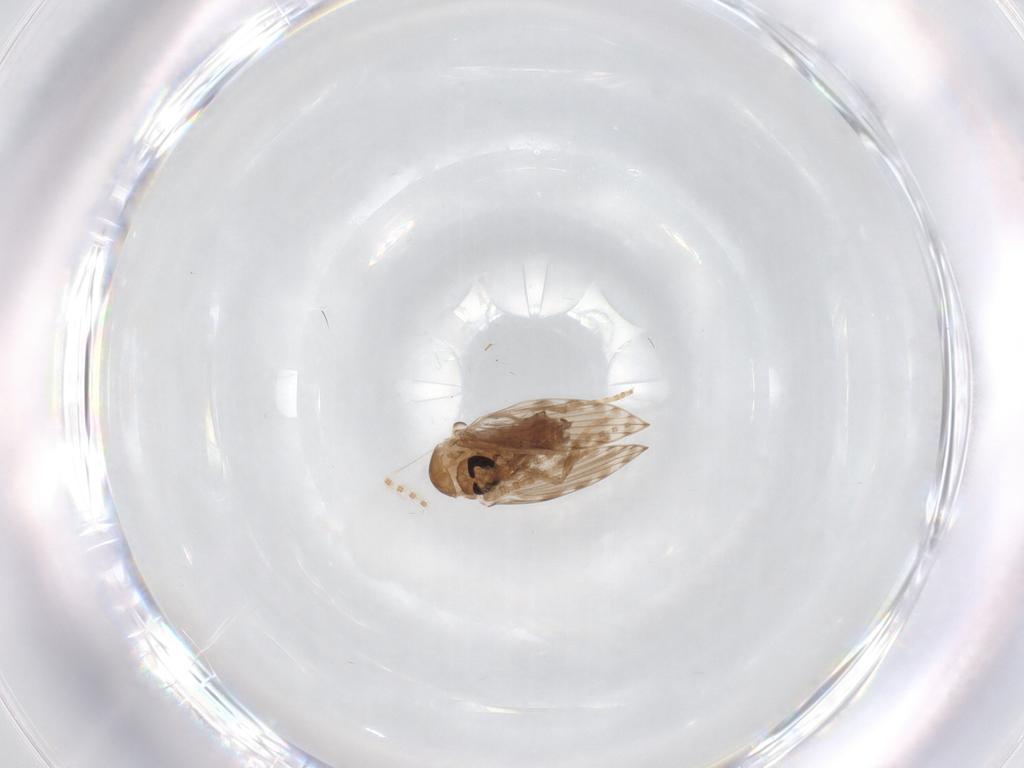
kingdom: Animalia
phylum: Arthropoda
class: Insecta
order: Diptera
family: Psychodidae
